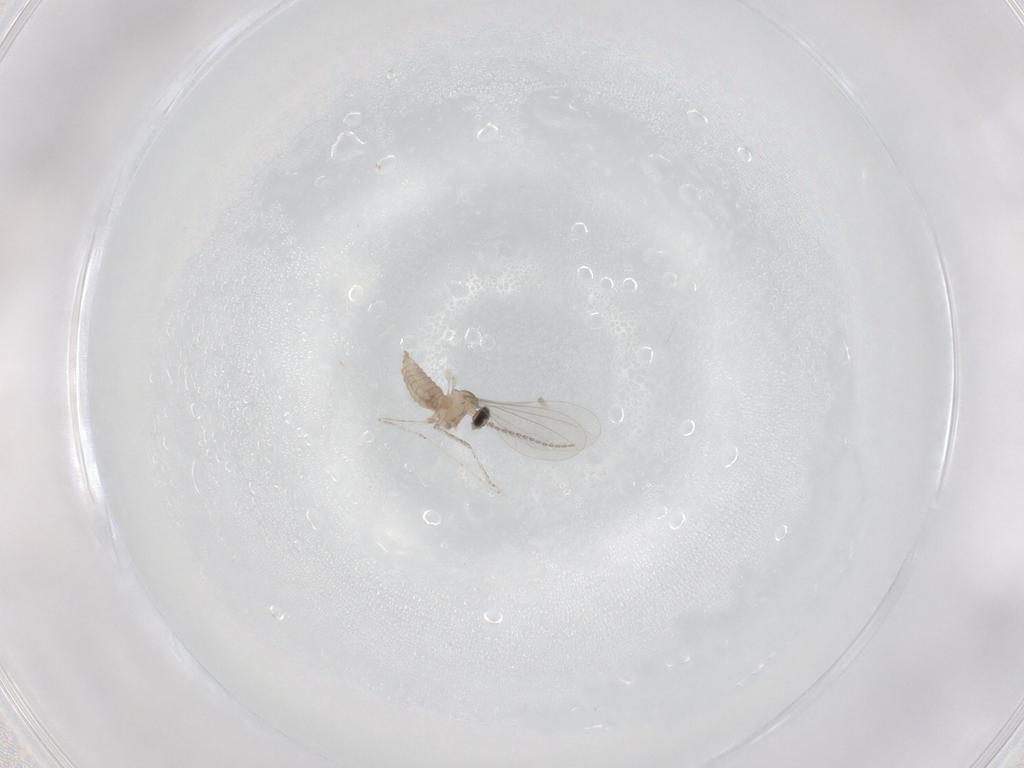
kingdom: Animalia
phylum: Arthropoda
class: Insecta
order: Diptera
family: Cecidomyiidae
